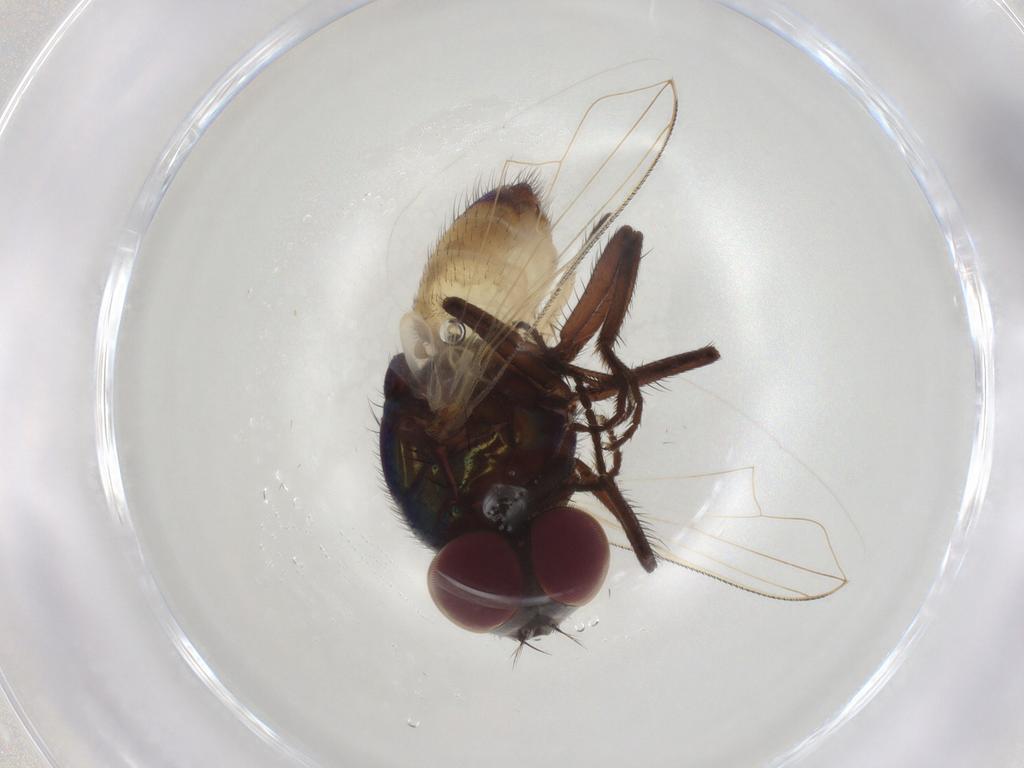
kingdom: Animalia
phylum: Arthropoda
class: Insecta
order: Diptera
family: Muscidae
